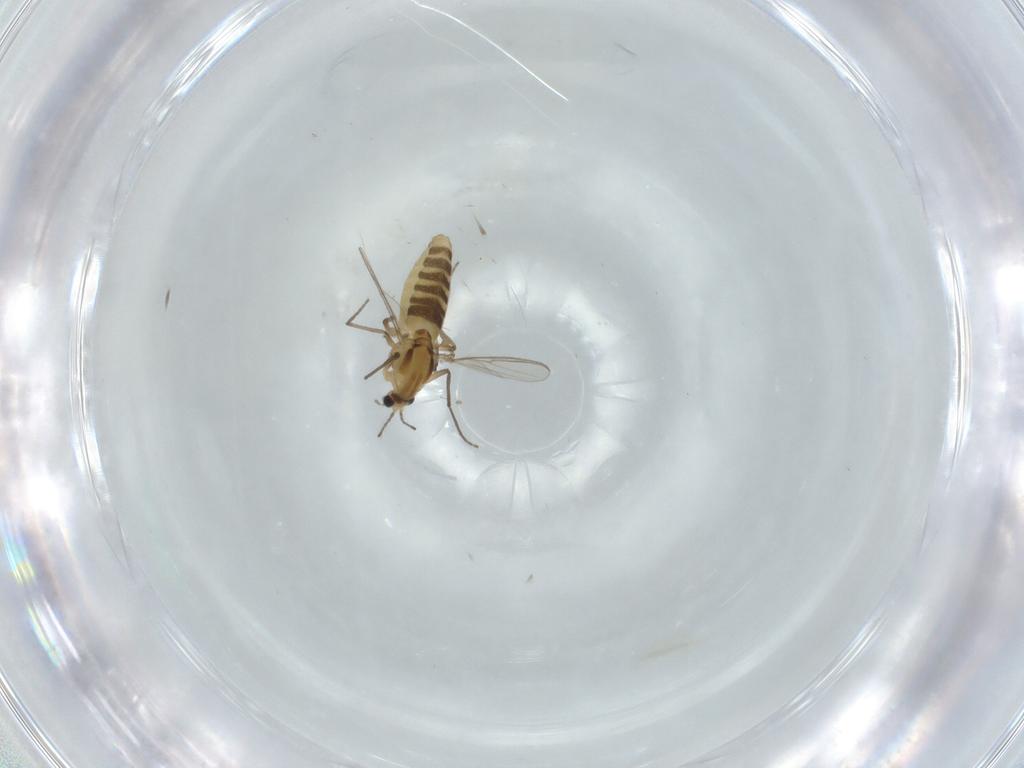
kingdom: Animalia
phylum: Arthropoda
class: Insecta
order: Diptera
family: Chironomidae
